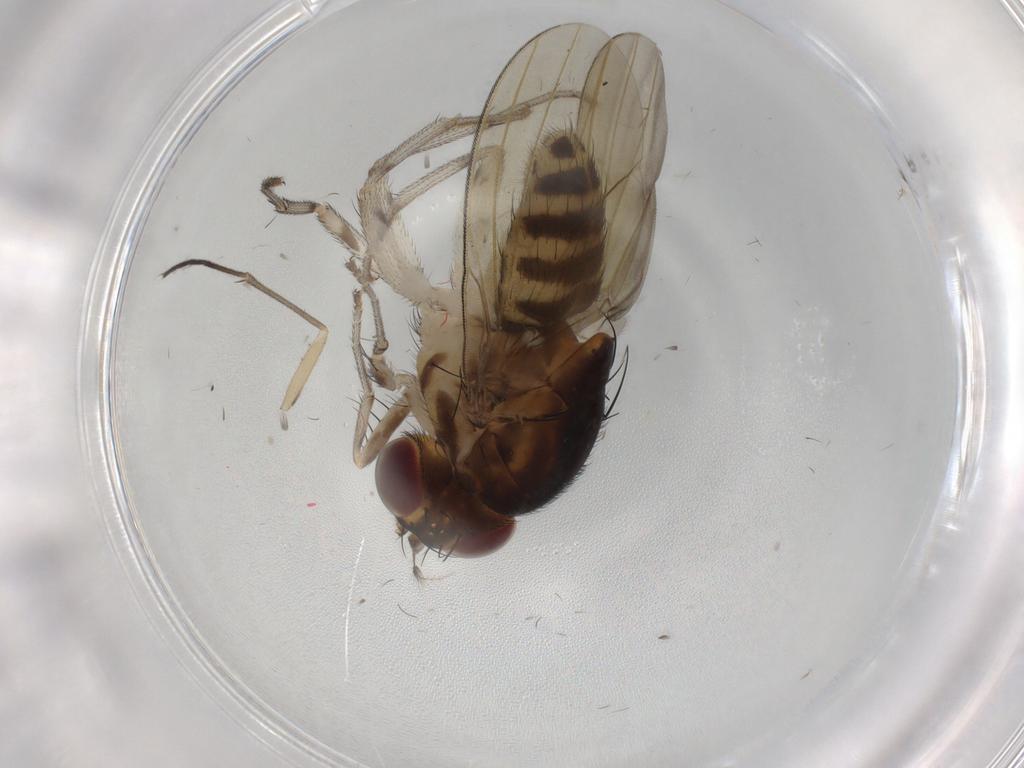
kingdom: Animalia
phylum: Arthropoda
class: Insecta
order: Diptera
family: Sciaridae
